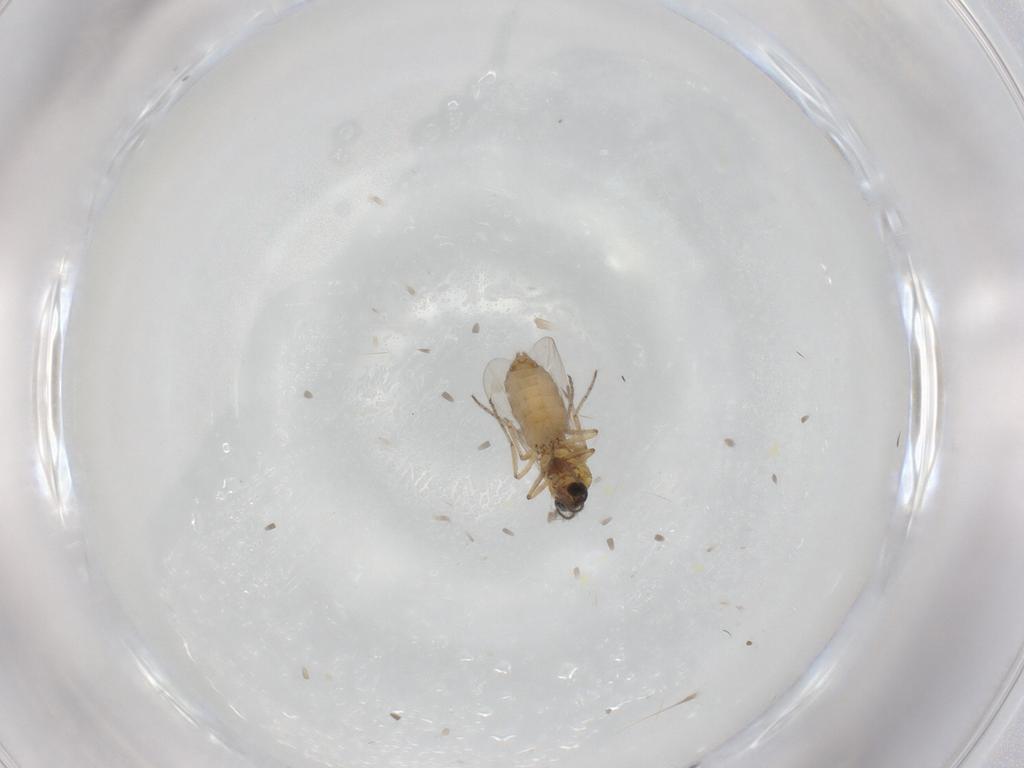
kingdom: Animalia
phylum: Arthropoda
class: Insecta
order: Diptera
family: Ceratopogonidae
